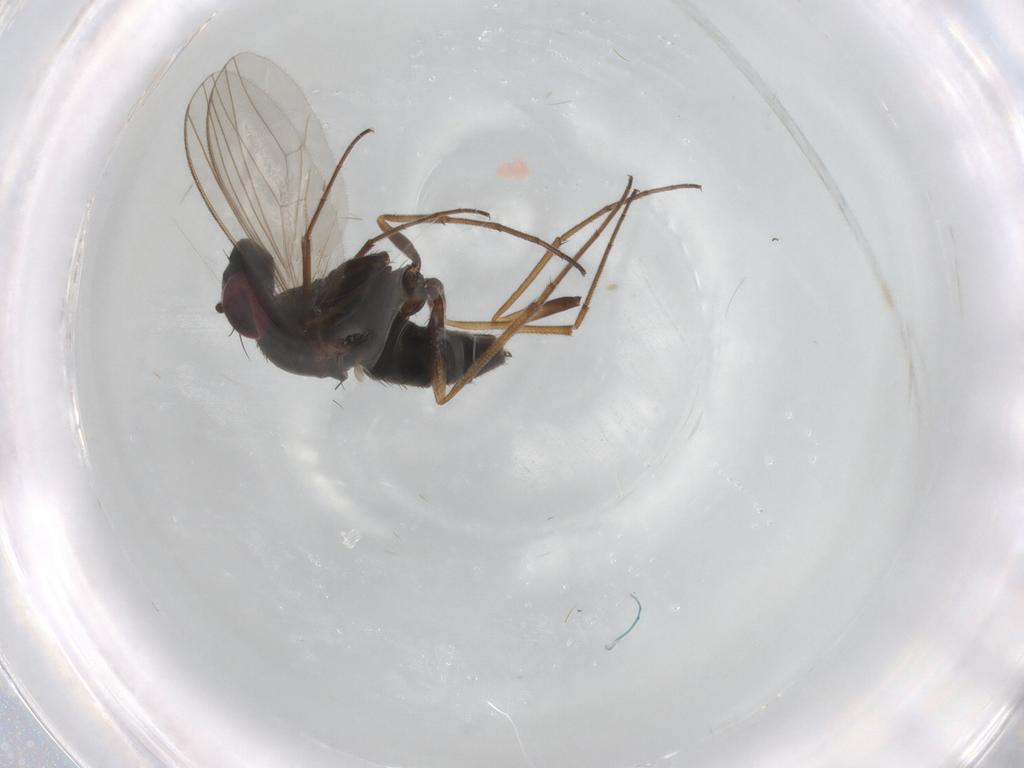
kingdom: Animalia
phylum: Arthropoda
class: Insecta
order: Diptera
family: Dolichopodidae
